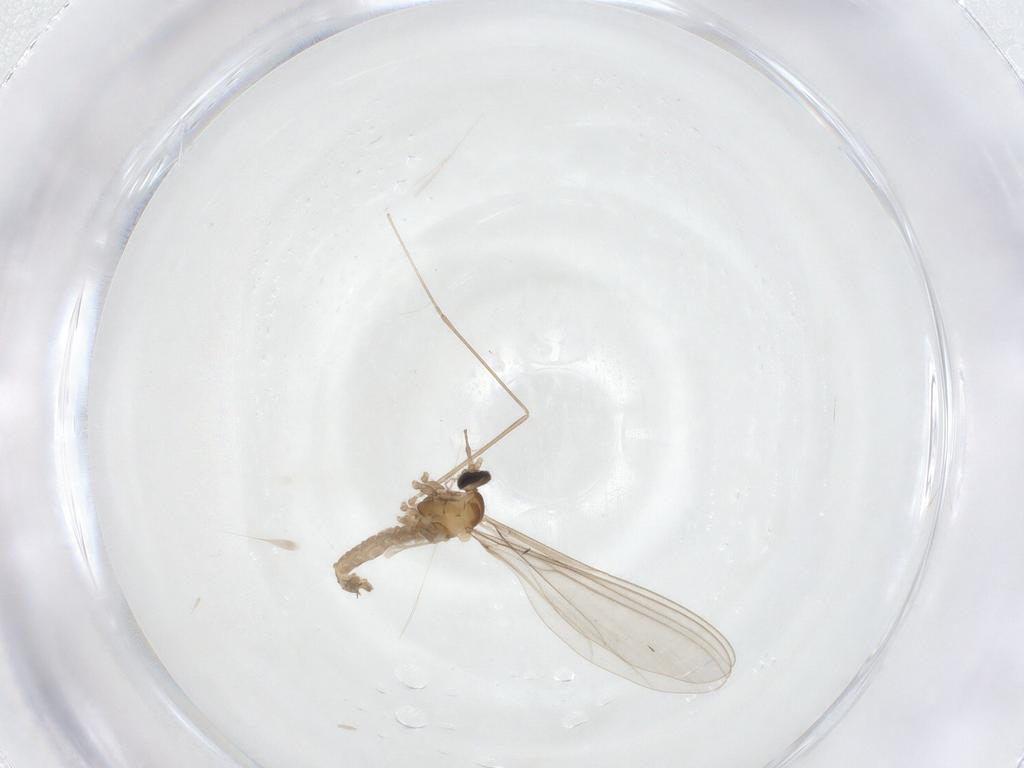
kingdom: Animalia
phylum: Arthropoda
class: Insecta
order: Diptera
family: Cecidomyiidae
